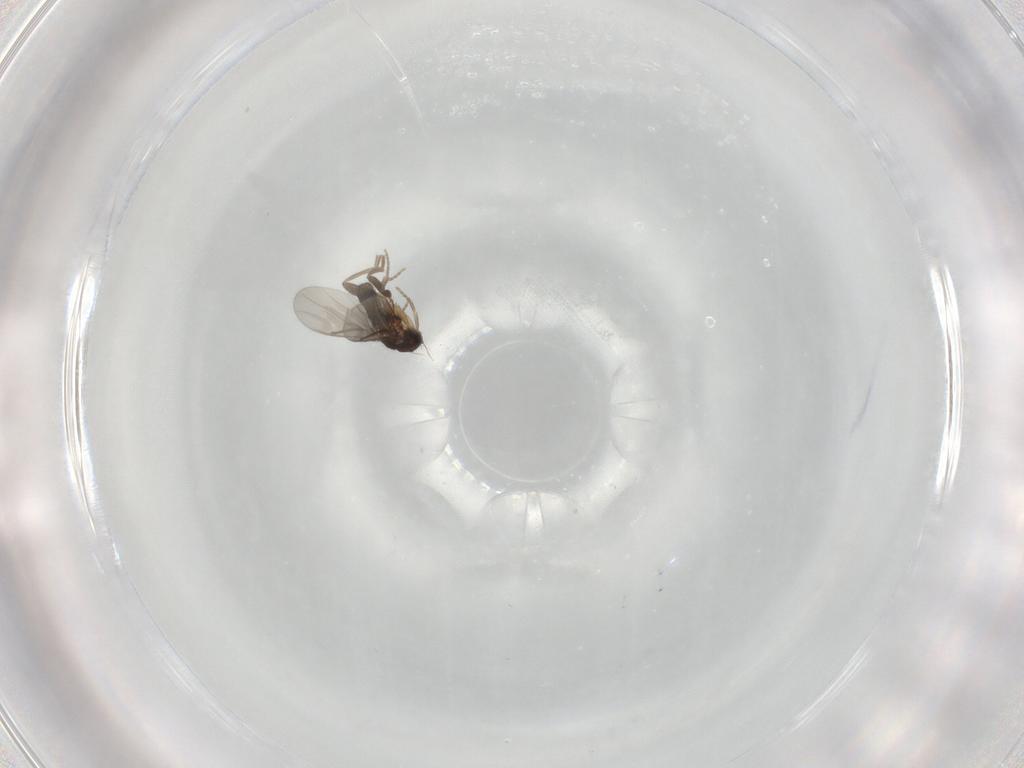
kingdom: Animalia
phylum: Arthropoda
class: Insecta
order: Diptera
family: Phoridae
